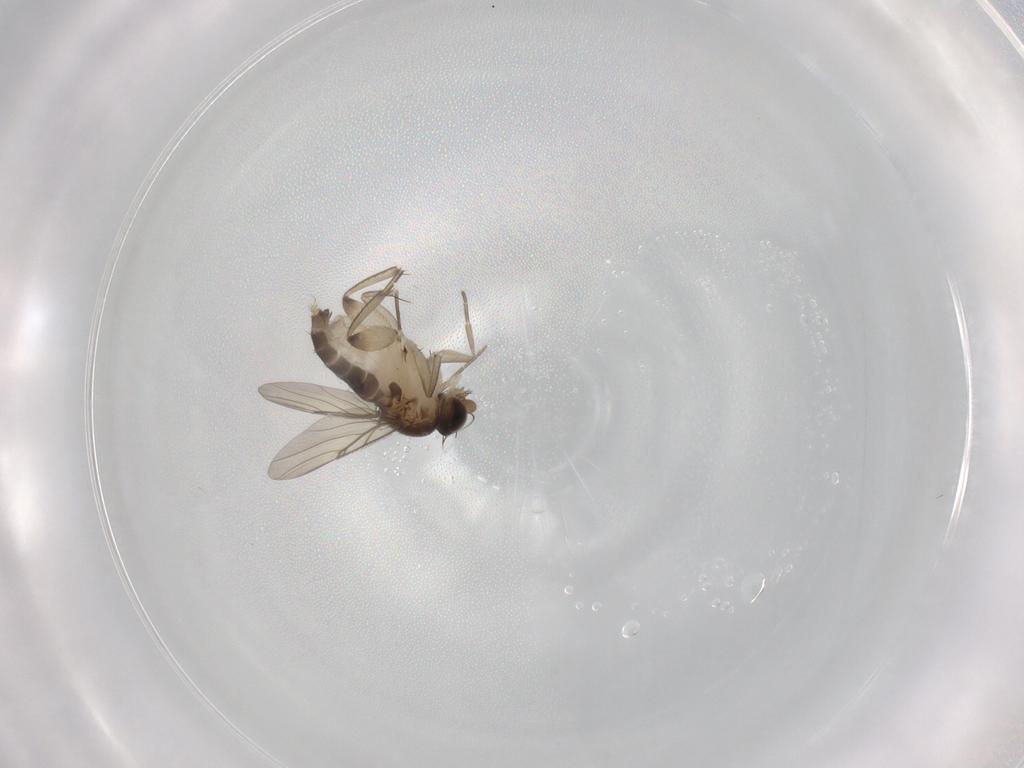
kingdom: Animalia
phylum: Arthropoda
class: Insecta
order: Diptera
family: Phoridae
